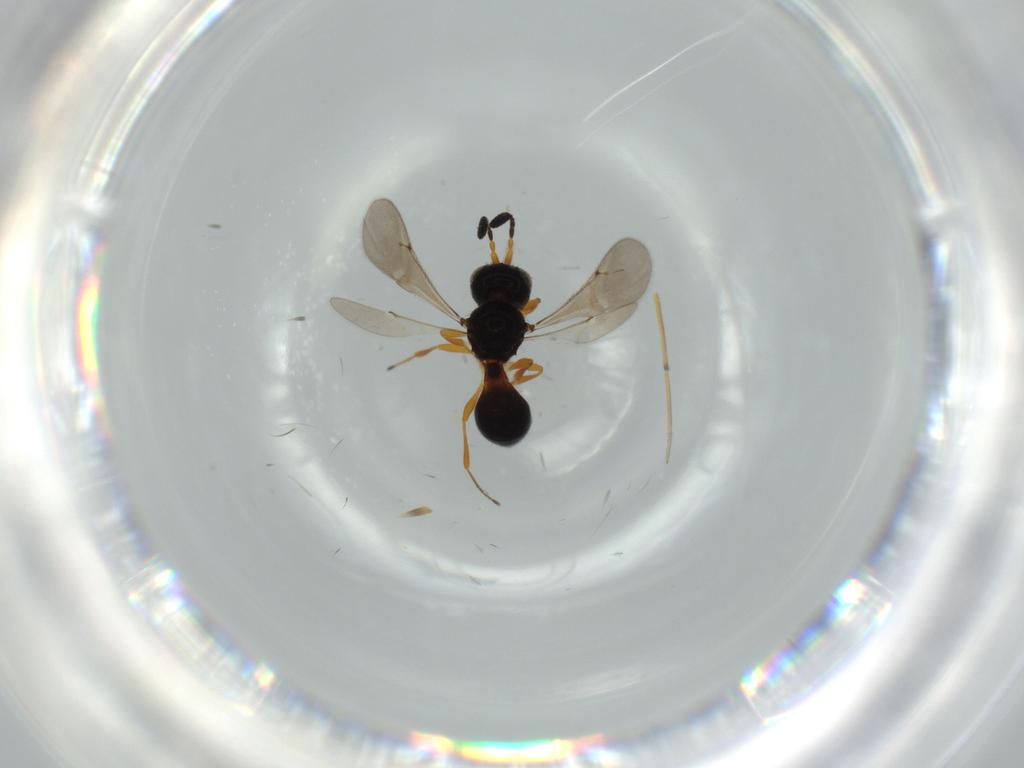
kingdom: Animalia
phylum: Arthropoda
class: Insecta
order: Hymenoptera
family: Formicidae
